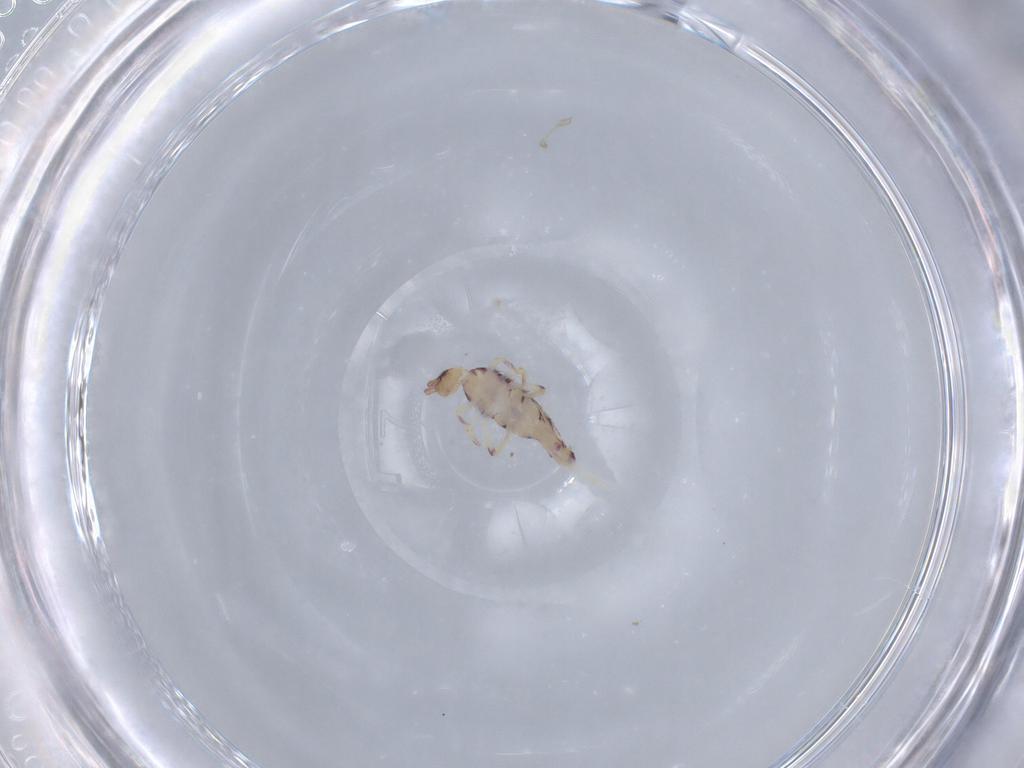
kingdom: Animalia
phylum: Arthropoda
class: Collembola
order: Entomobryomorpha
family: Entomobryidae
